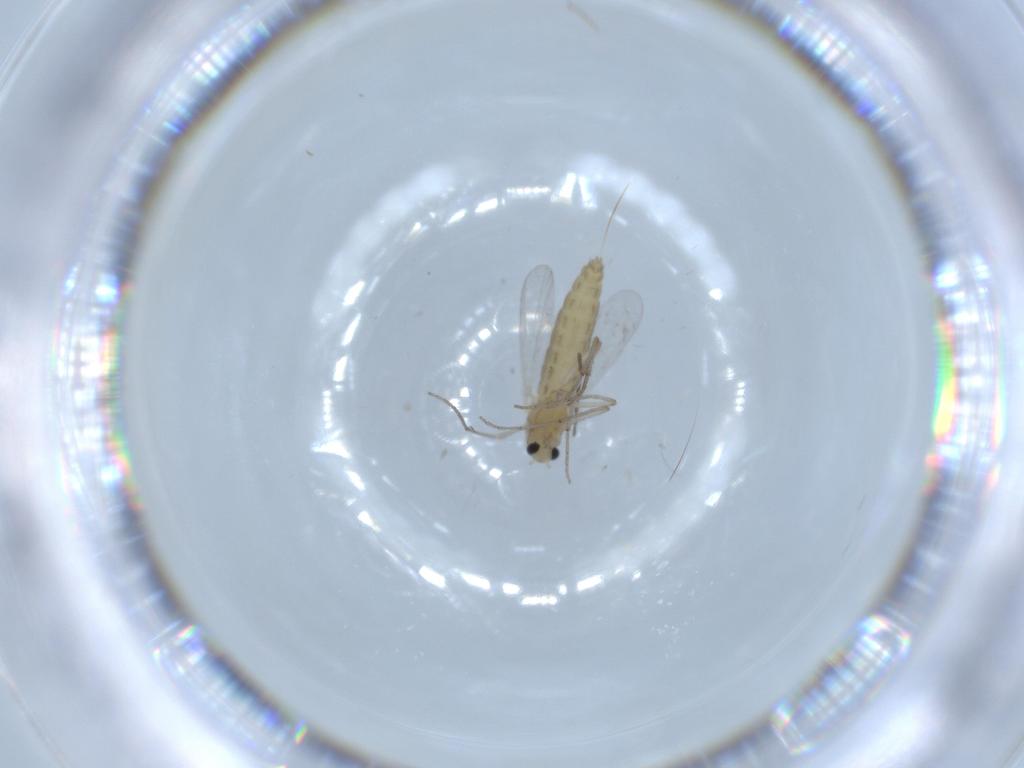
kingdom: Animalia
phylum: Arthropoda
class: Insecta
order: Diptera
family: Chironomidae
